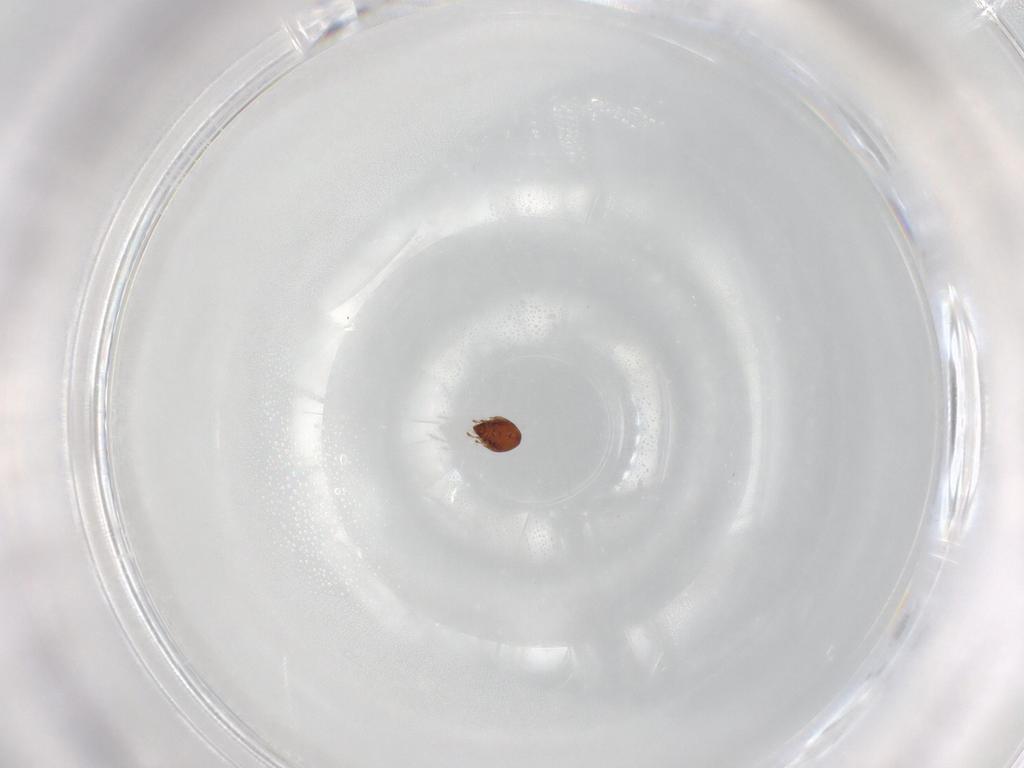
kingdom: Animalia
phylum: Arthropoda
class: Arachnida
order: Sarcoptiformes
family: Ceratozetidae
